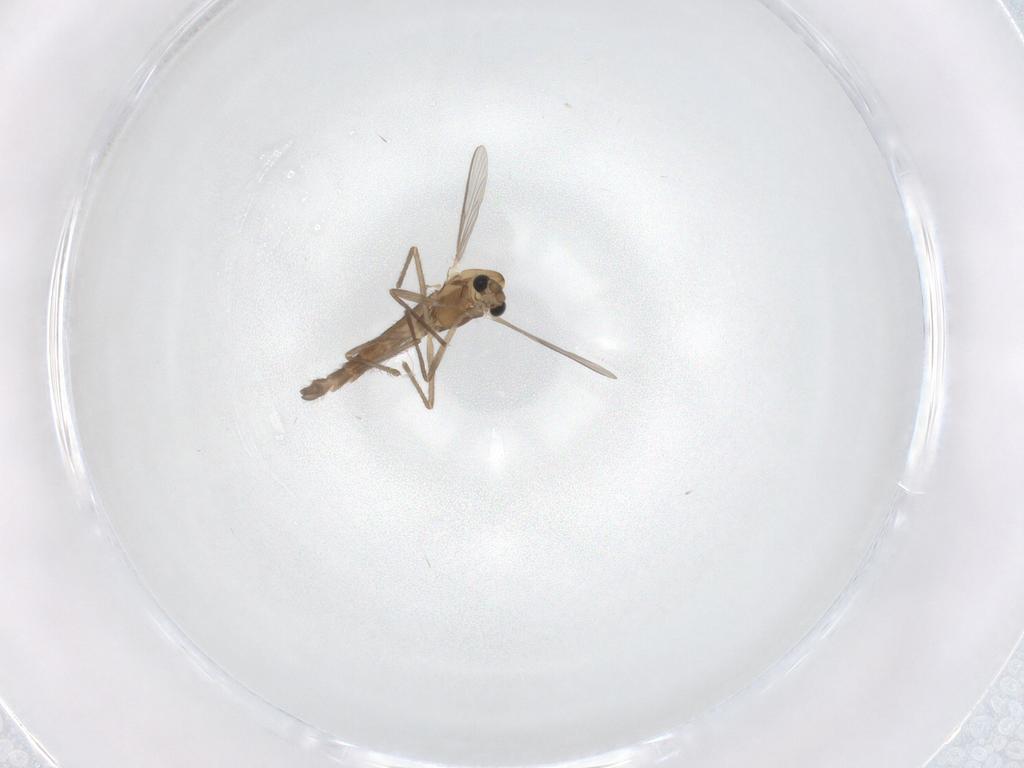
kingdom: Animalia
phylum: Arthropoda
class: Insecta
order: Diptera
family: Chironomidae
